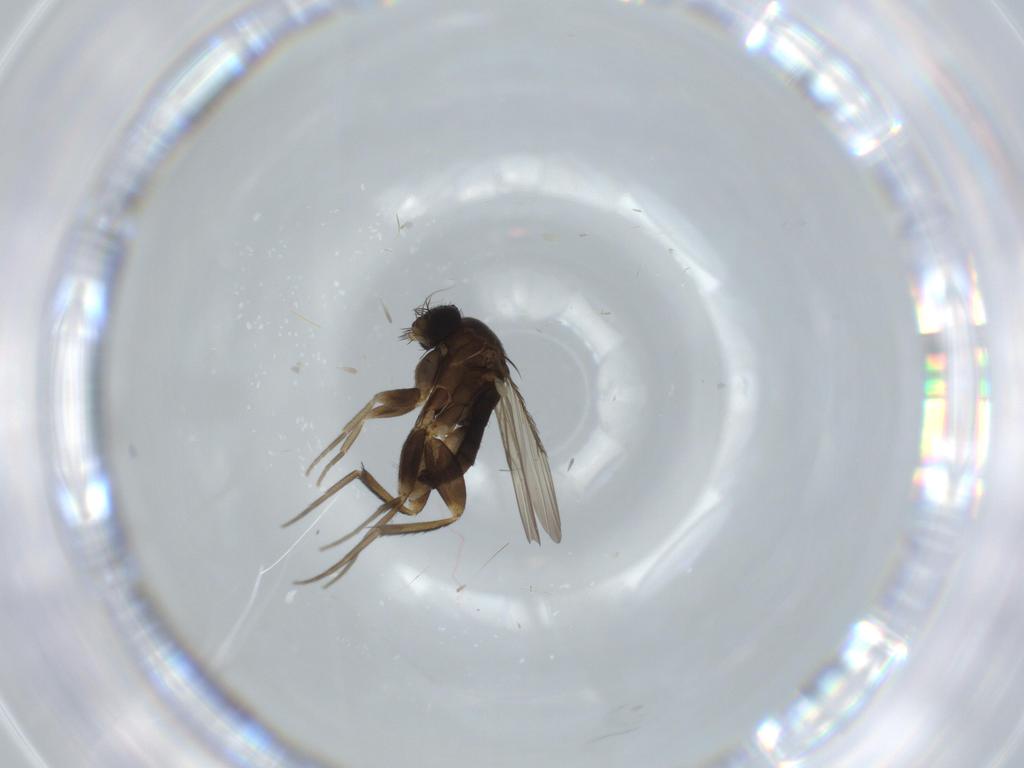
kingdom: Animalia
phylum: Arthropoda
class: Insecta
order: Diptera
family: Phoridae
